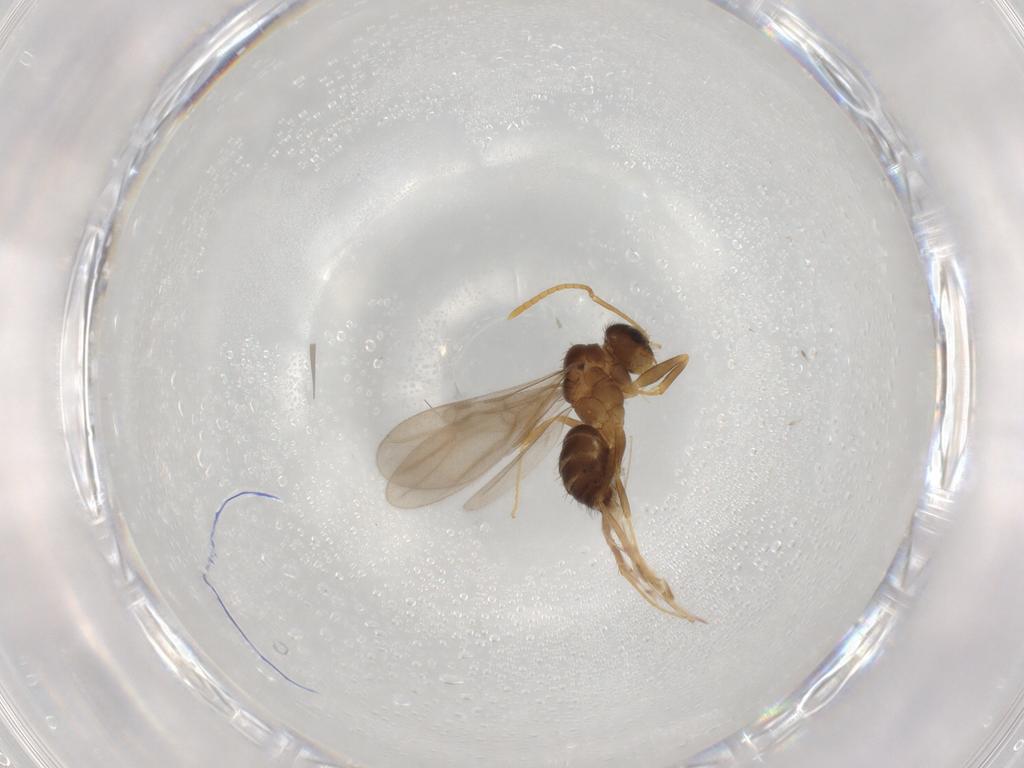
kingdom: Animalia
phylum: Arthropoda
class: Insecta
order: Hymenoptera
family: Formicidae
